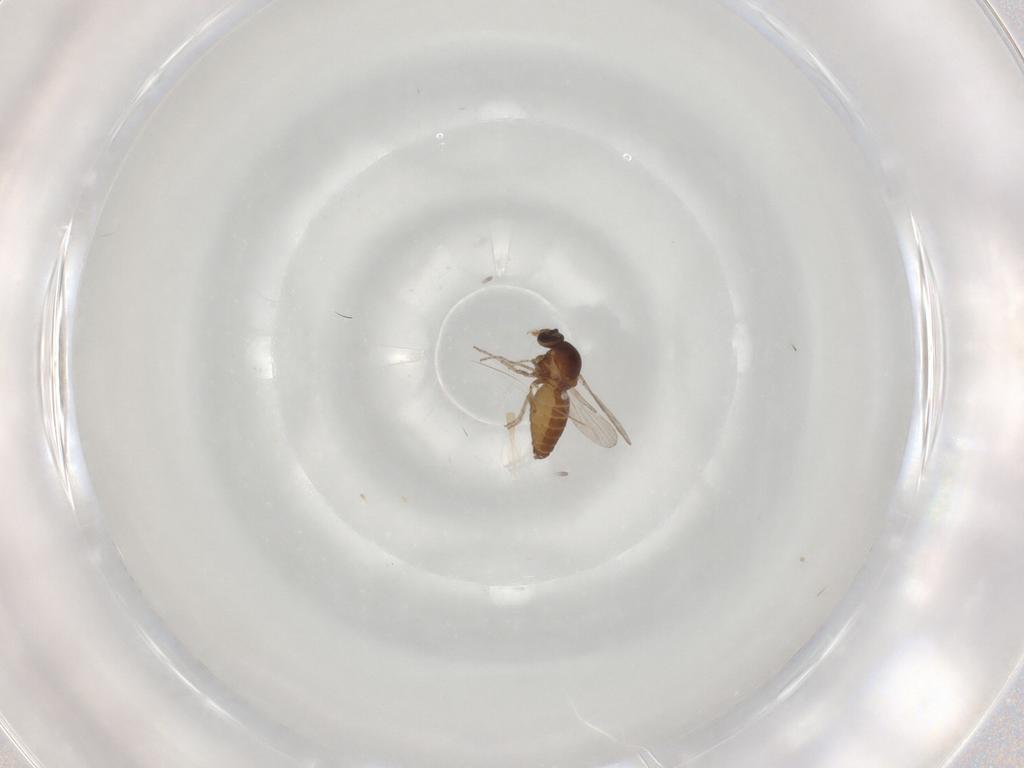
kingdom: Animalia
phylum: Arthropoda
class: Insecta
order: Diptera
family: Ceratopogonidae
